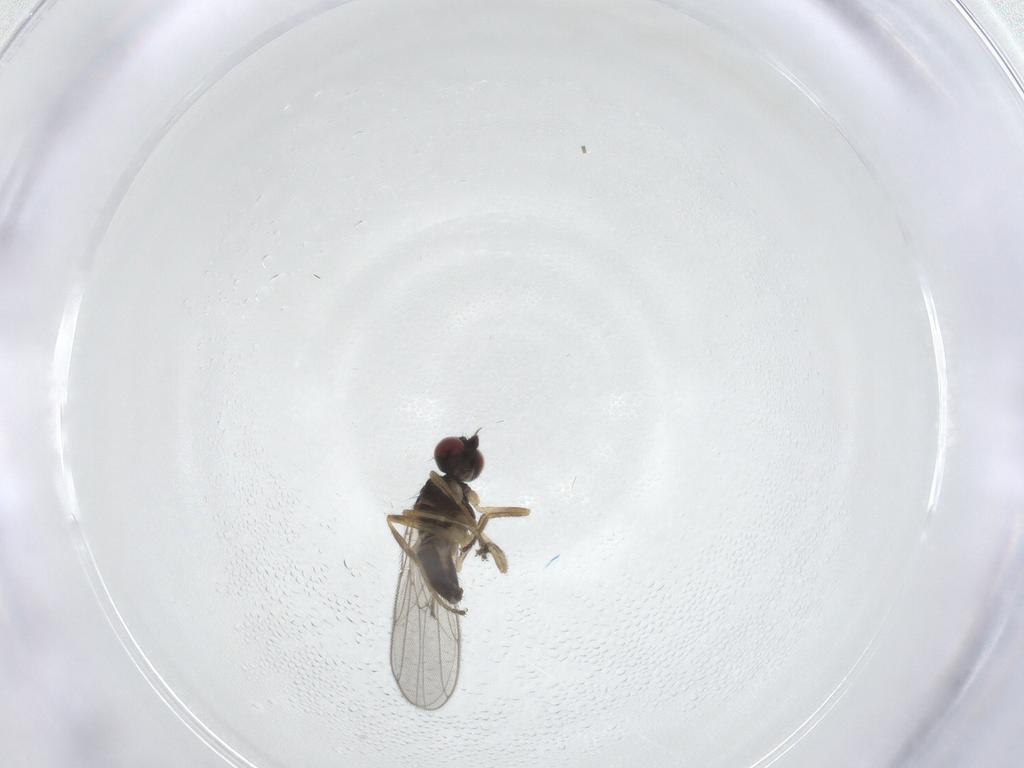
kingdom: Animalia
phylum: Arthropoda
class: Insecta
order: Diptera
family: Chloropidae
